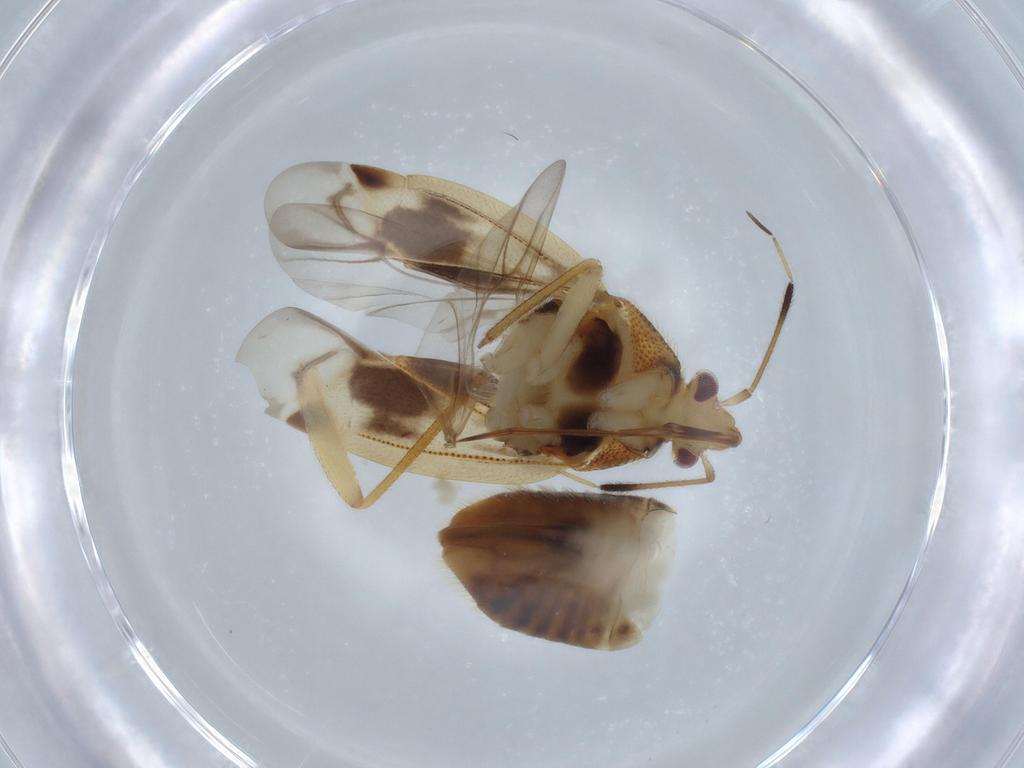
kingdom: Animalia
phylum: Arthropoda
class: Insecta
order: Hemiptera
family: Miridae
